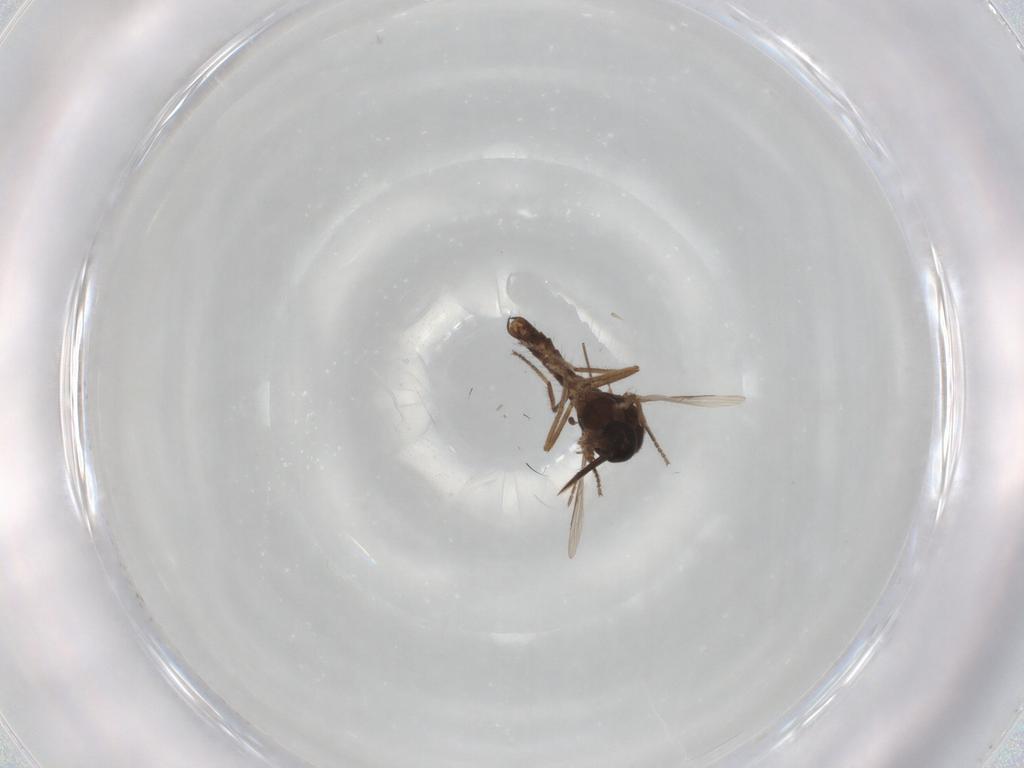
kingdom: Animalia
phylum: Arthropoda
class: Insecta
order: Diptera
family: Ceratopogonidae
